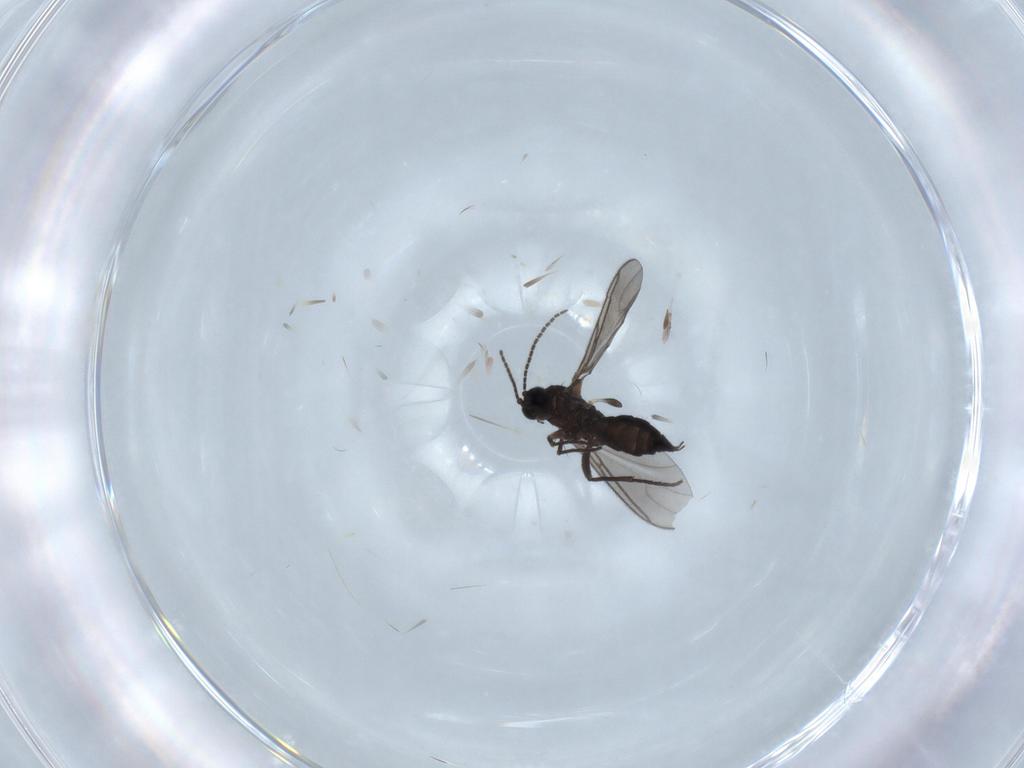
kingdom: Animalia
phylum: Arthropoda
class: Insecta
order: Diptera
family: Sciaridae
